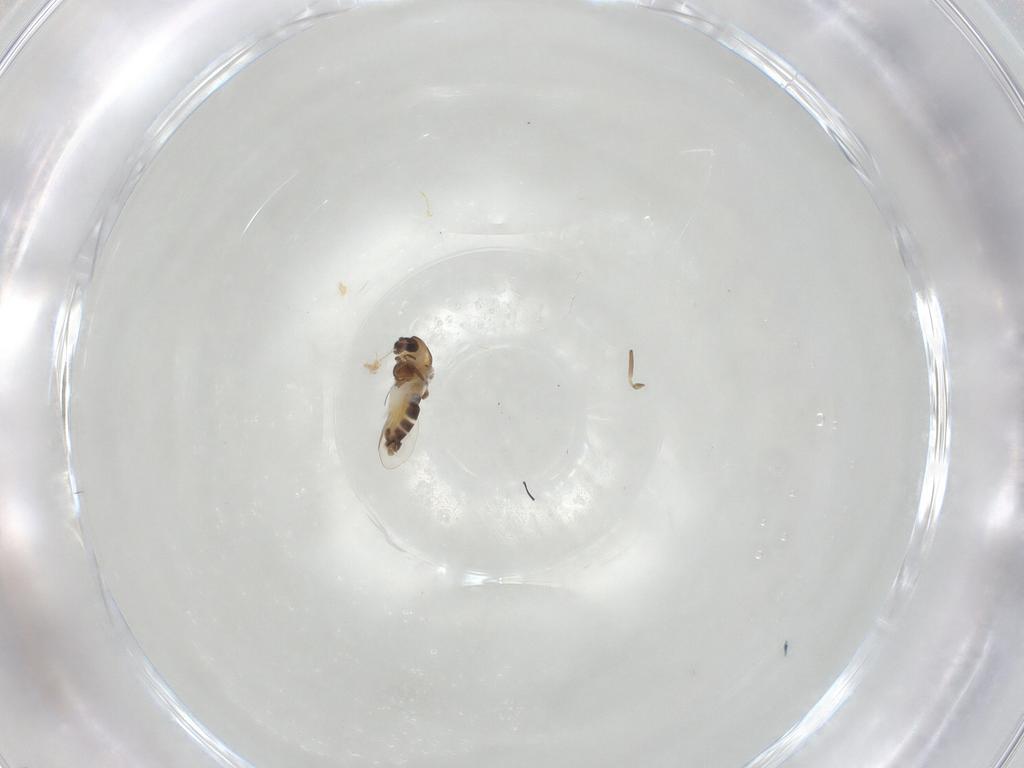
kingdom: Animalia
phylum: Arthropoda
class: Insecta
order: Diptera
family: Chironomidae
